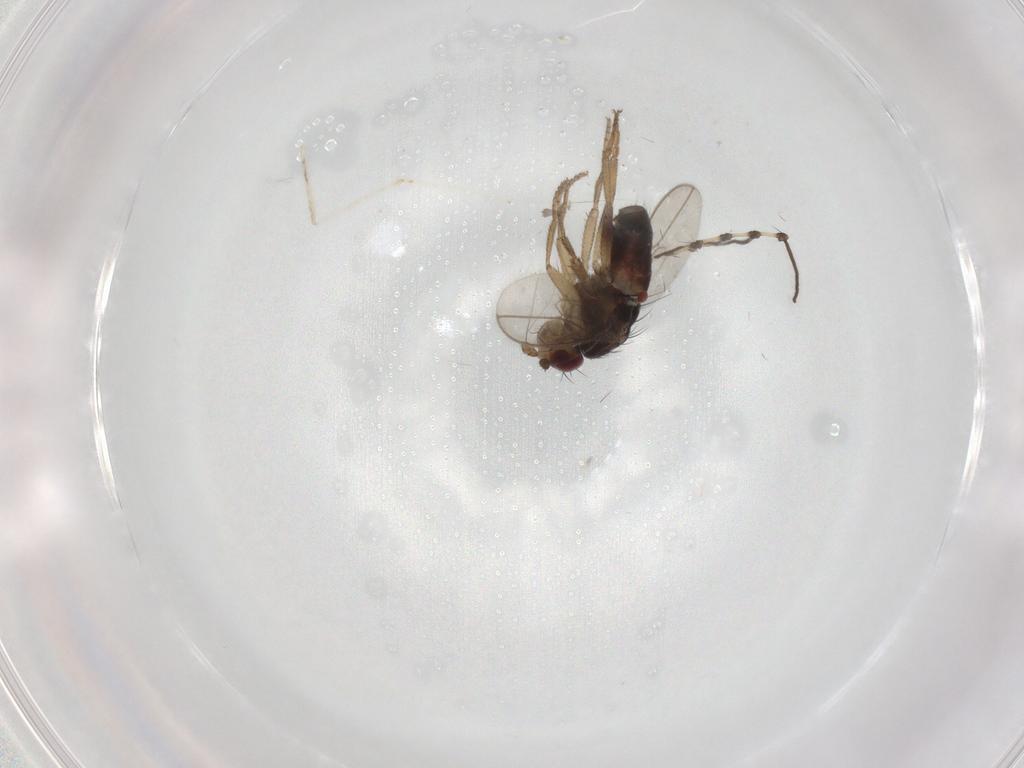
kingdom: Animalia
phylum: Arthropoda
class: Insecta
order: Diptera
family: Sphaeroceridae
